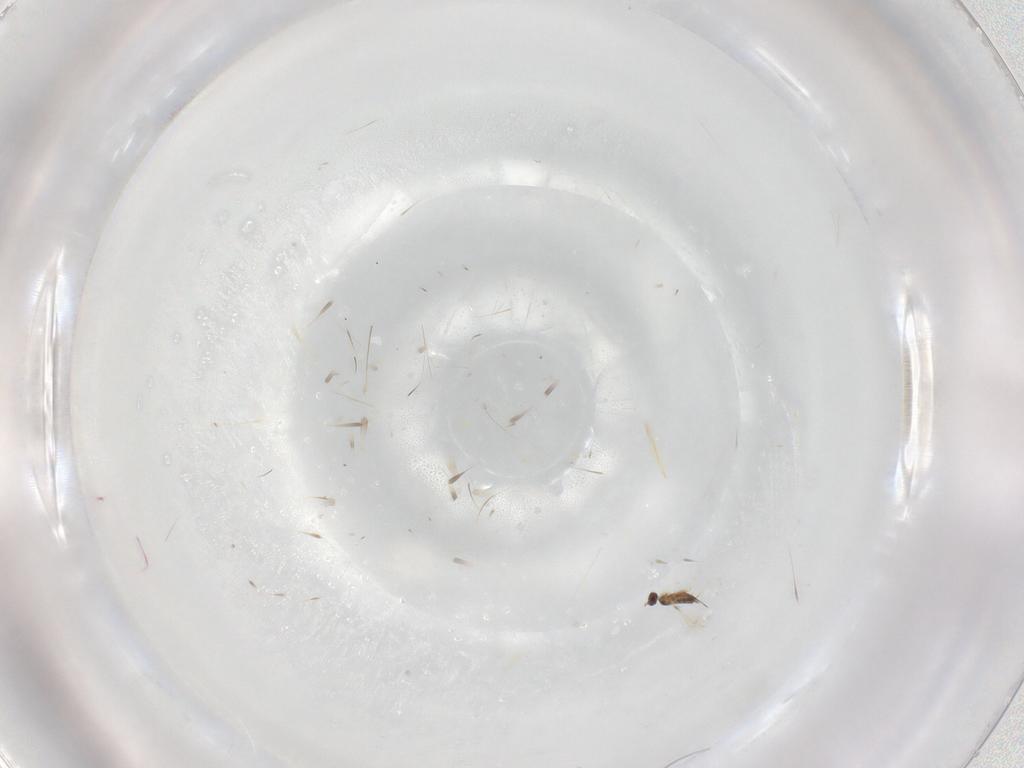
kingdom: Animalia
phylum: Arthropoda
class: Insecta
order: Hymenoptera
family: Mymaridae
